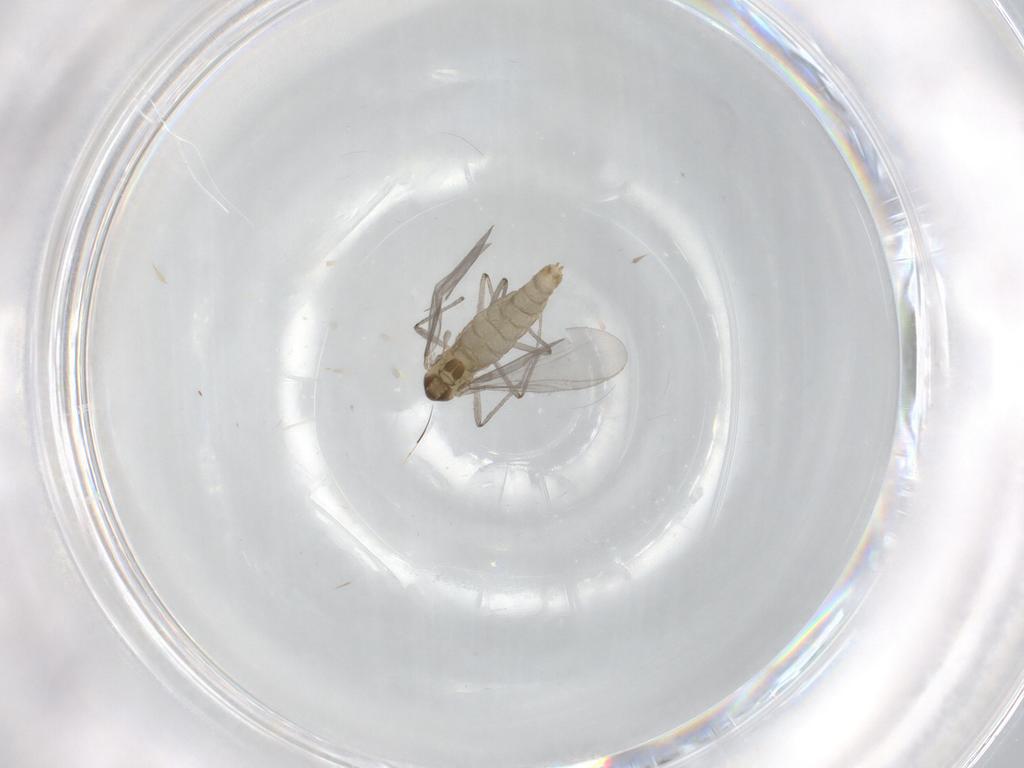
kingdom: Animalia
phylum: Arthropoda
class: Insecta
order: Diptera
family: Chironomidae
